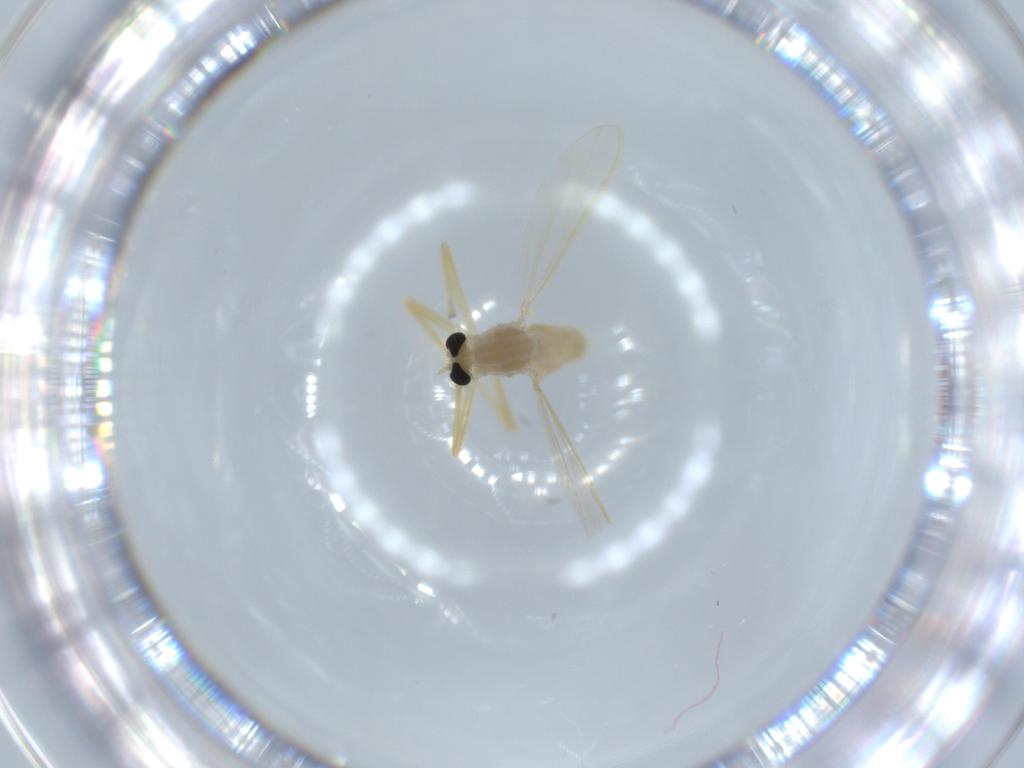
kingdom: Animalia
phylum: Arthropoda
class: Insecta
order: Diptera
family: Chironomidae
